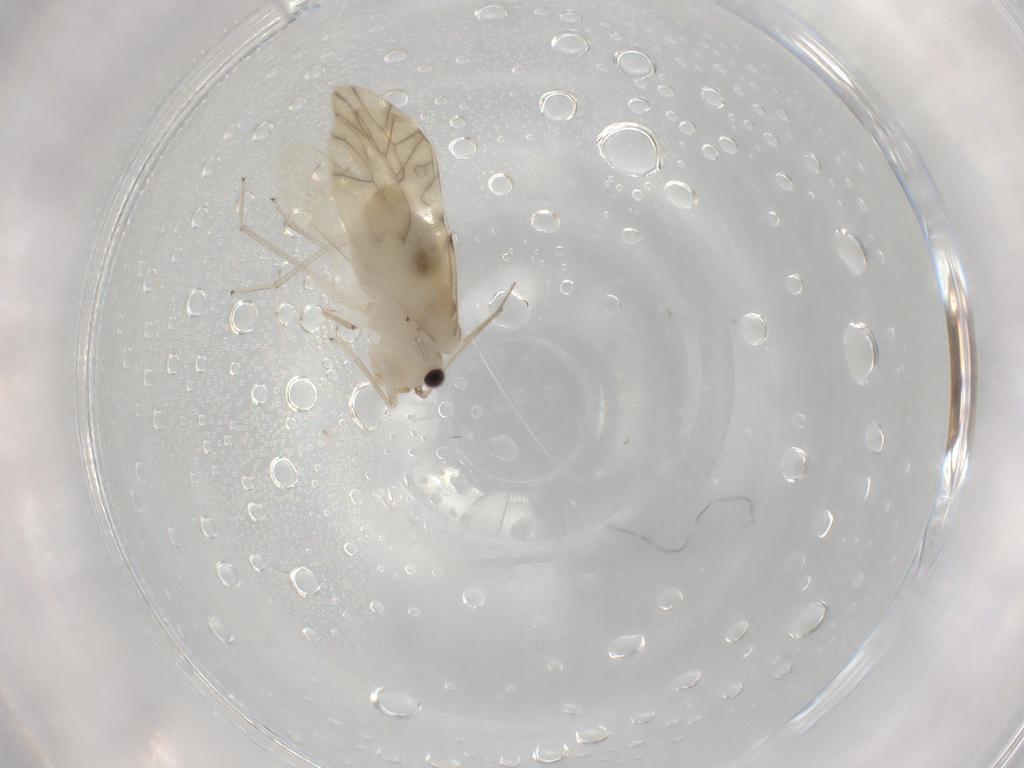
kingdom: Animalia
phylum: Arthropoda
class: Insecta
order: Psocodea
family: Caeciliusidae
